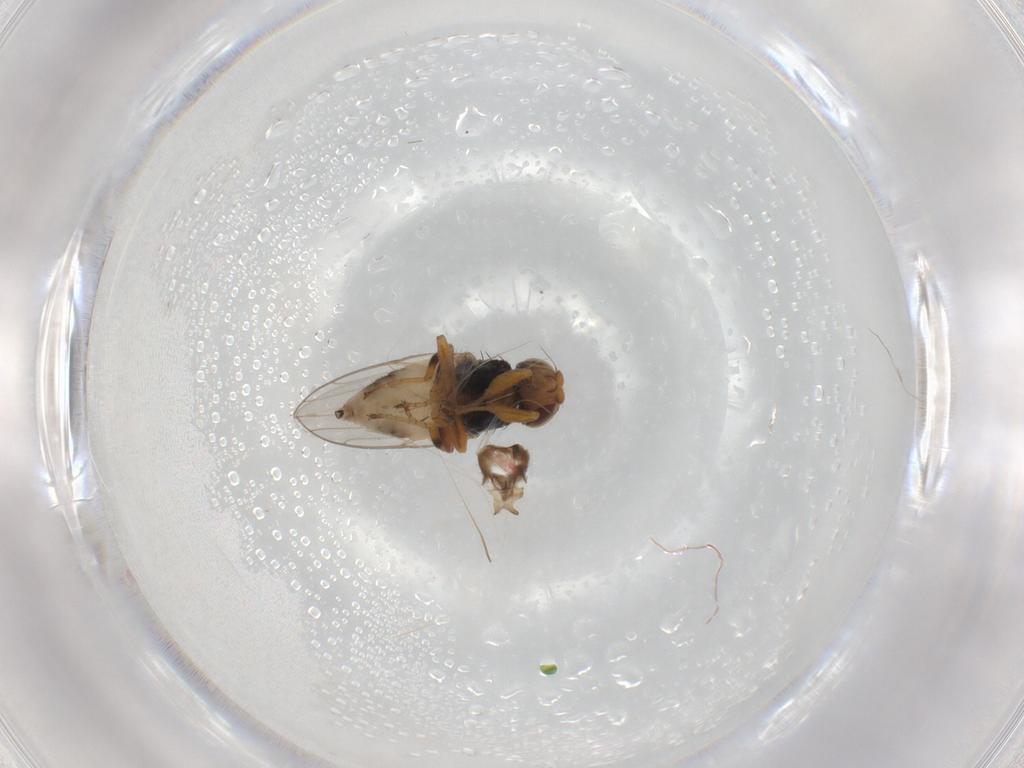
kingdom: Animalia
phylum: Arthropoda
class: Insecta
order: Diptera
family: Chloropidae
